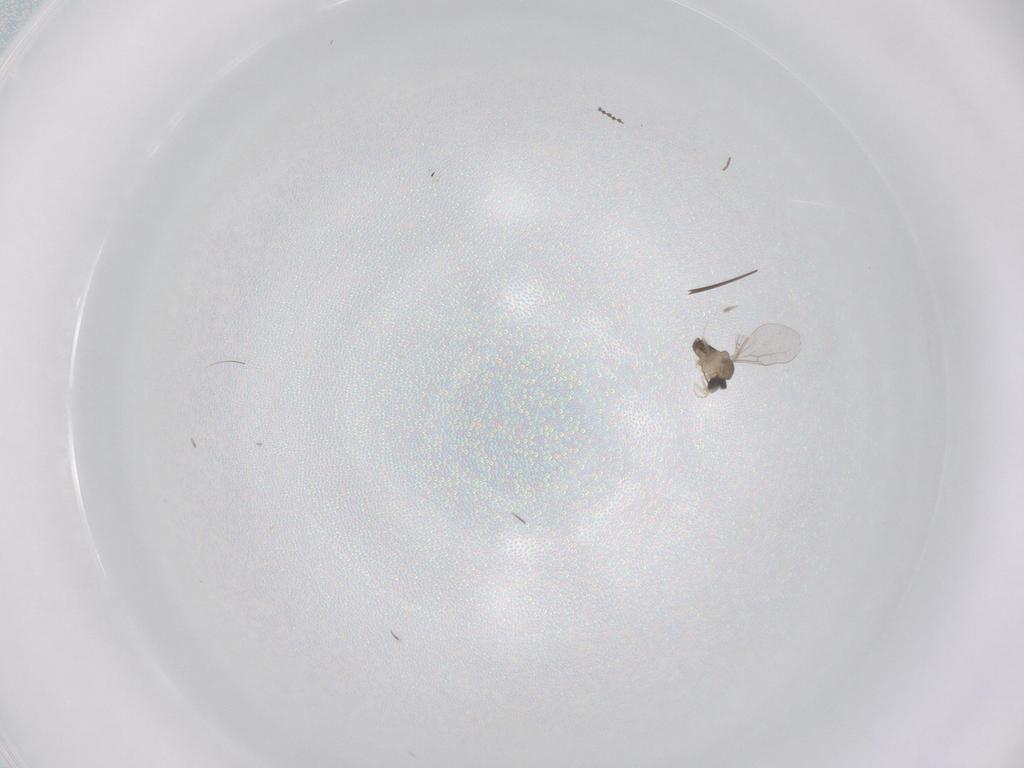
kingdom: Animalia
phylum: Arthropoda
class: Insecta
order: Diptera
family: Cecidomyiidae
